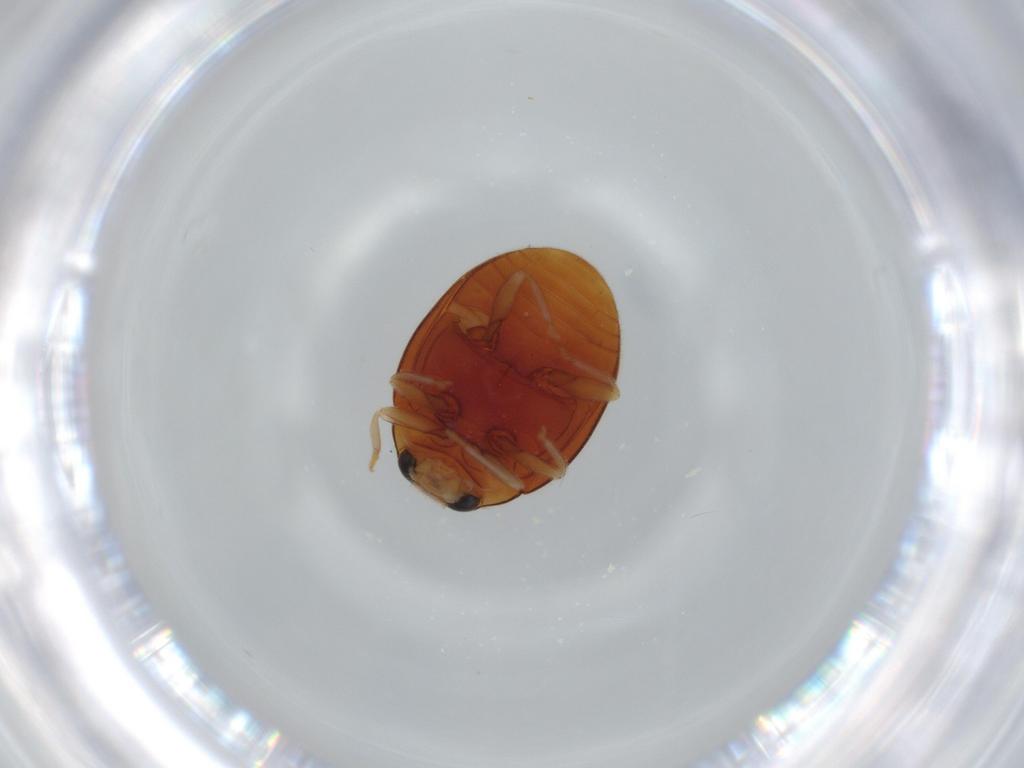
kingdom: Animalia
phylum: Arthropoda
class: Insecta
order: Coleoptera
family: Coccinellidae
